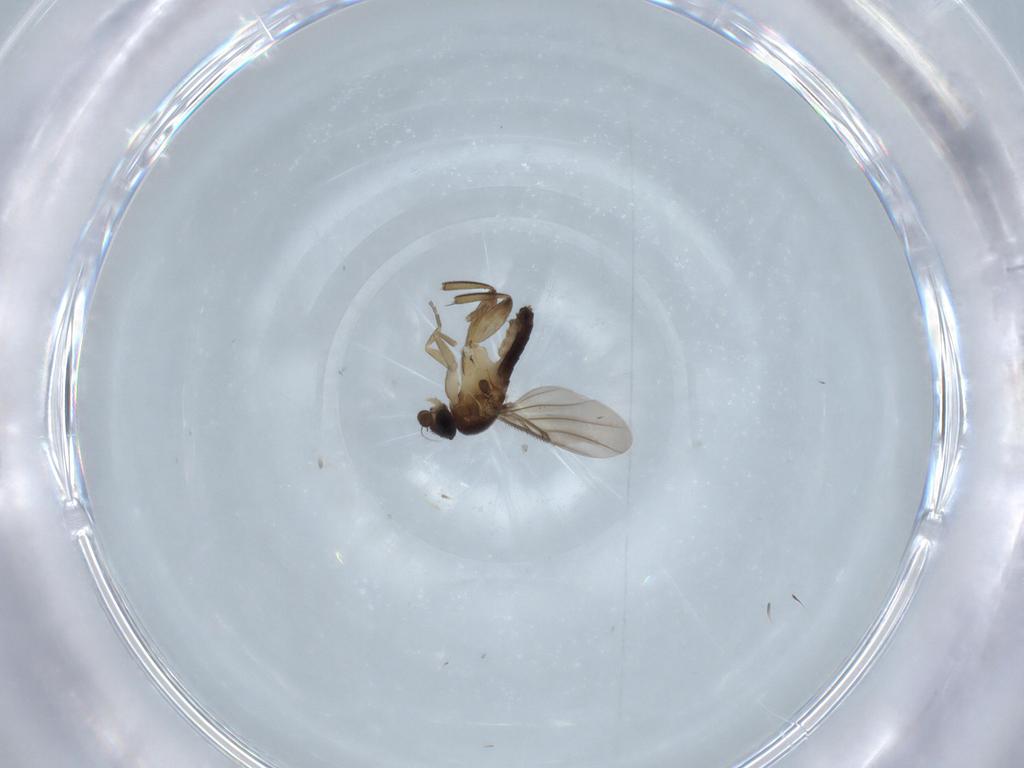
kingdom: Animalia
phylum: Arthropoda
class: Insecta
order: Diptera
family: Phoridae
